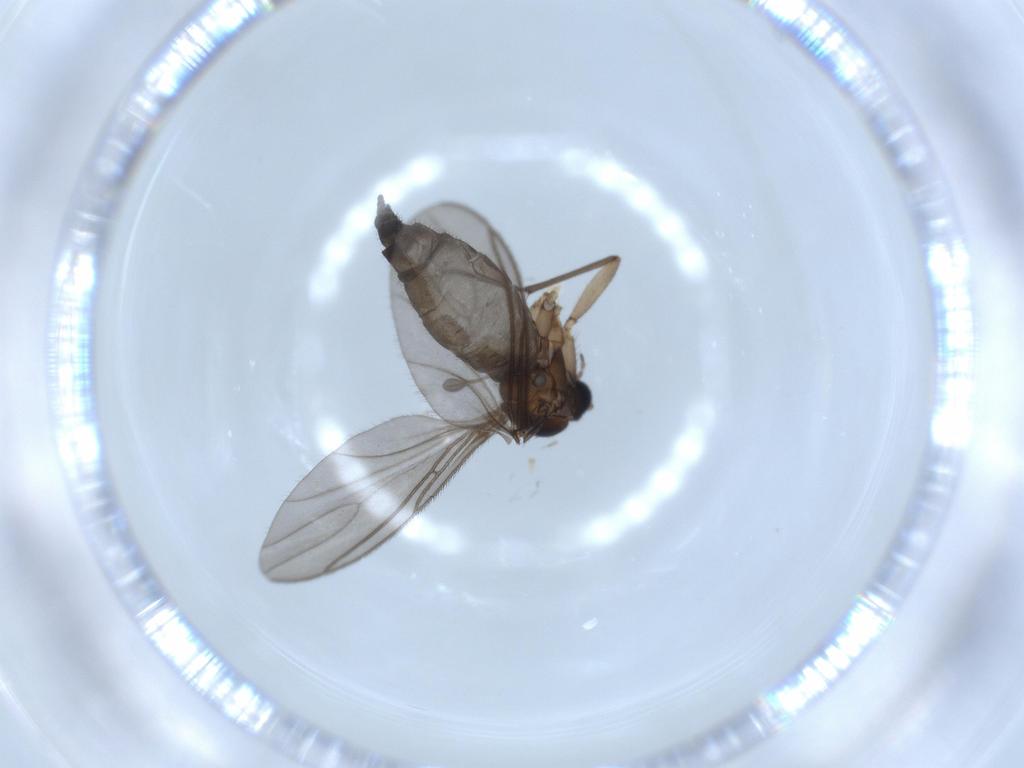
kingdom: Animalia
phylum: Arthropoda
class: Insecta
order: Diptera
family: Sciaridae
